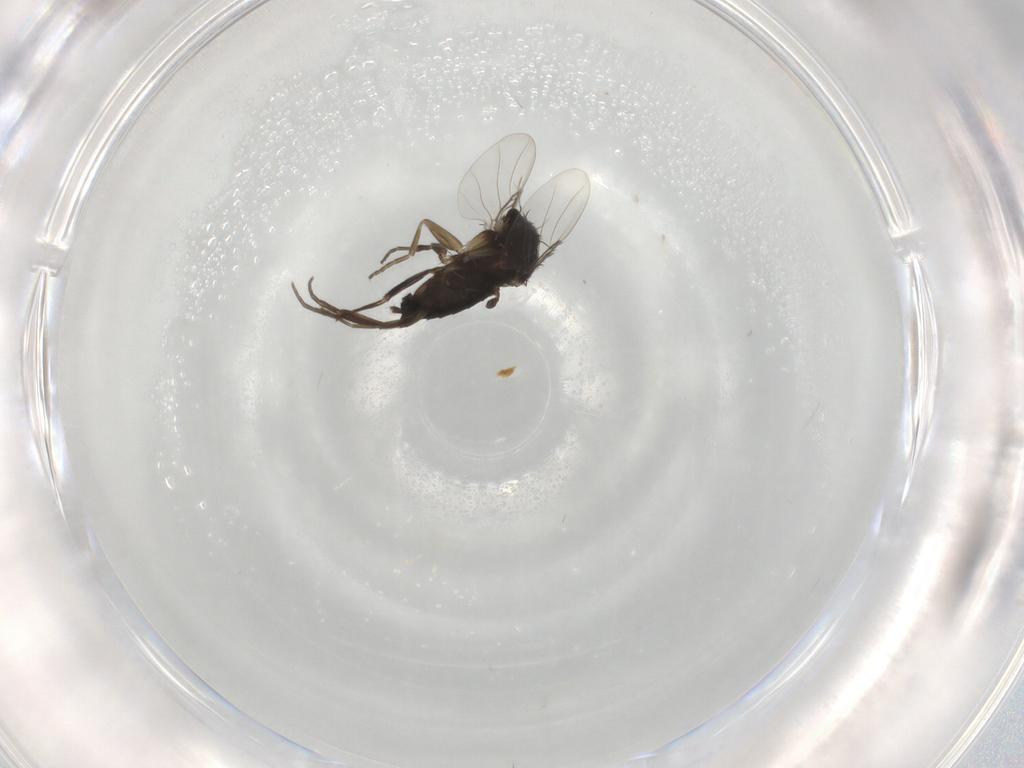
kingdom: Animalia
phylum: Arthropoda
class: Insecta
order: Diptera
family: Phoridae
